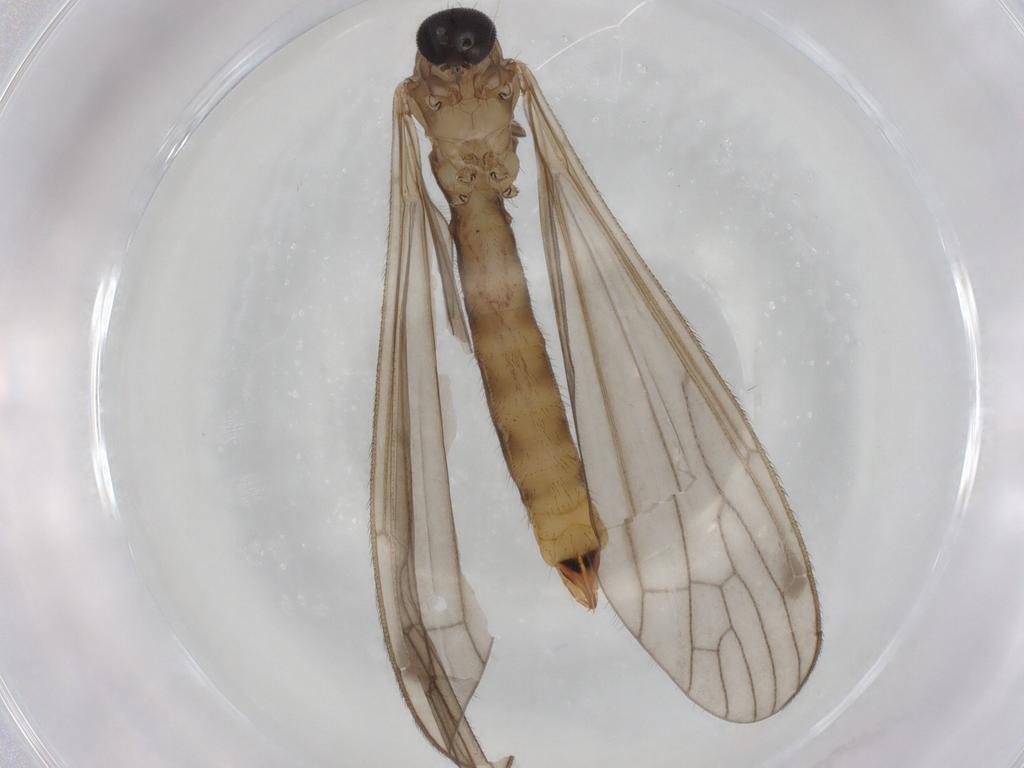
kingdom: Animalia
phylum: Arthropoda
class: Insecta
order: Diptera
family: Limoniidae
